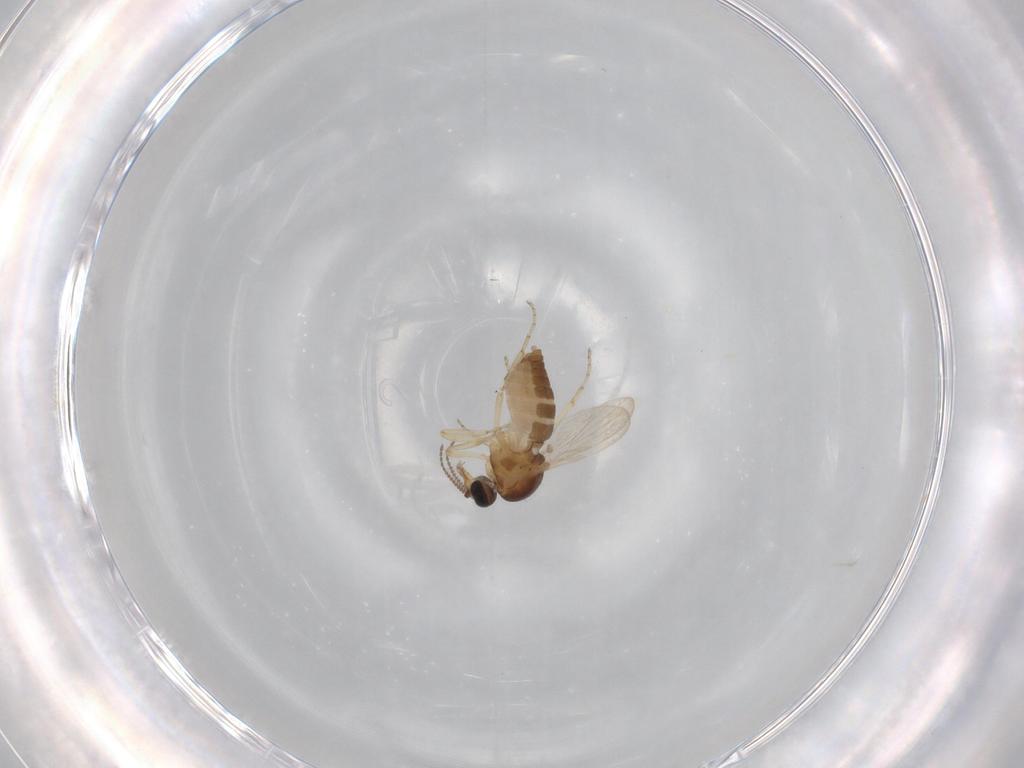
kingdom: Animalia
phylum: Arthropoda
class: Insecta
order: Diptera
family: Ceratopogonidae
